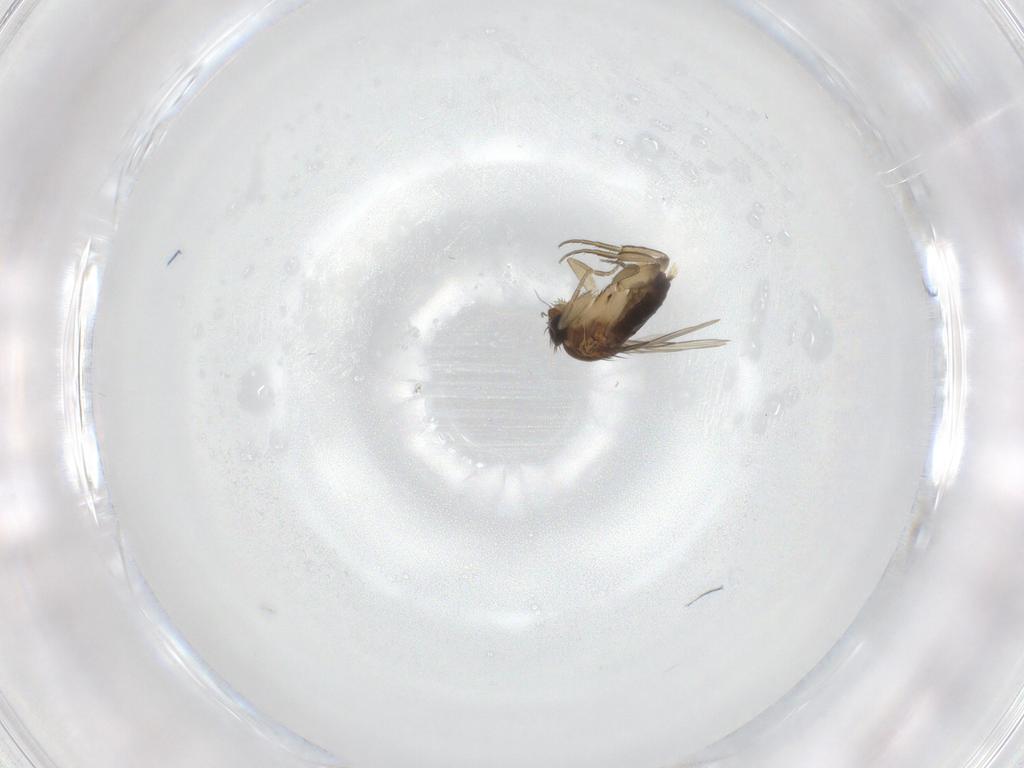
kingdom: Animalia
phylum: Arthropoda
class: Insecta
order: Diptera
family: Phoridae
